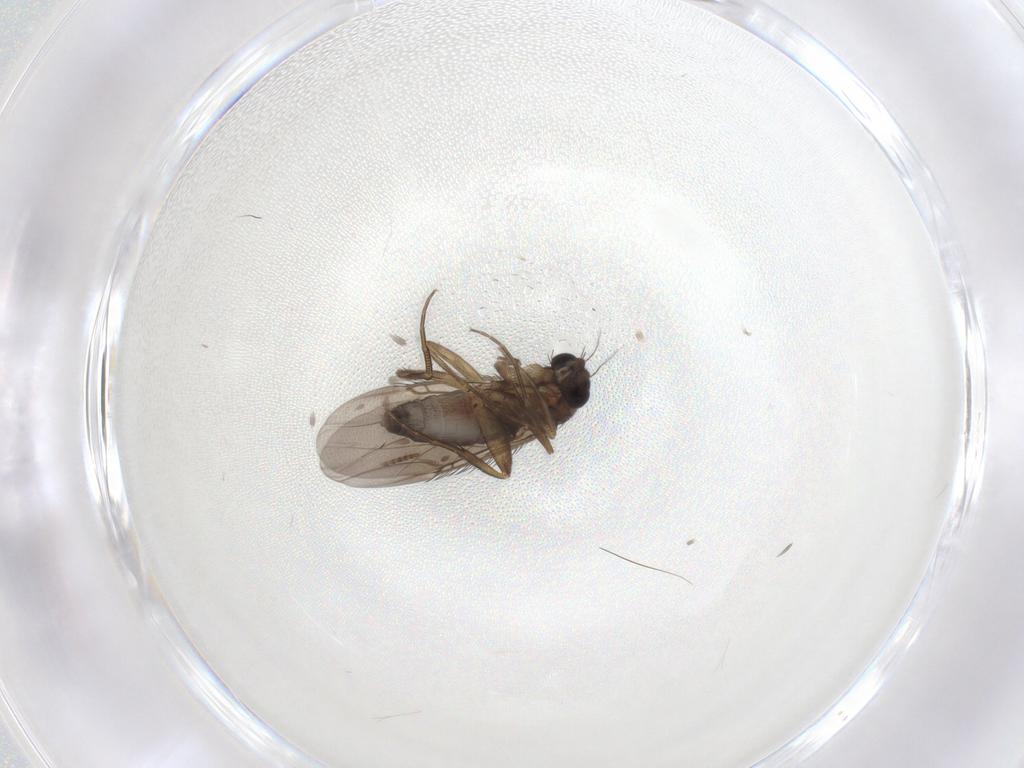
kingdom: Animalia
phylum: Arthropoda
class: Insecta
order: Diptera
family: Phoridae
